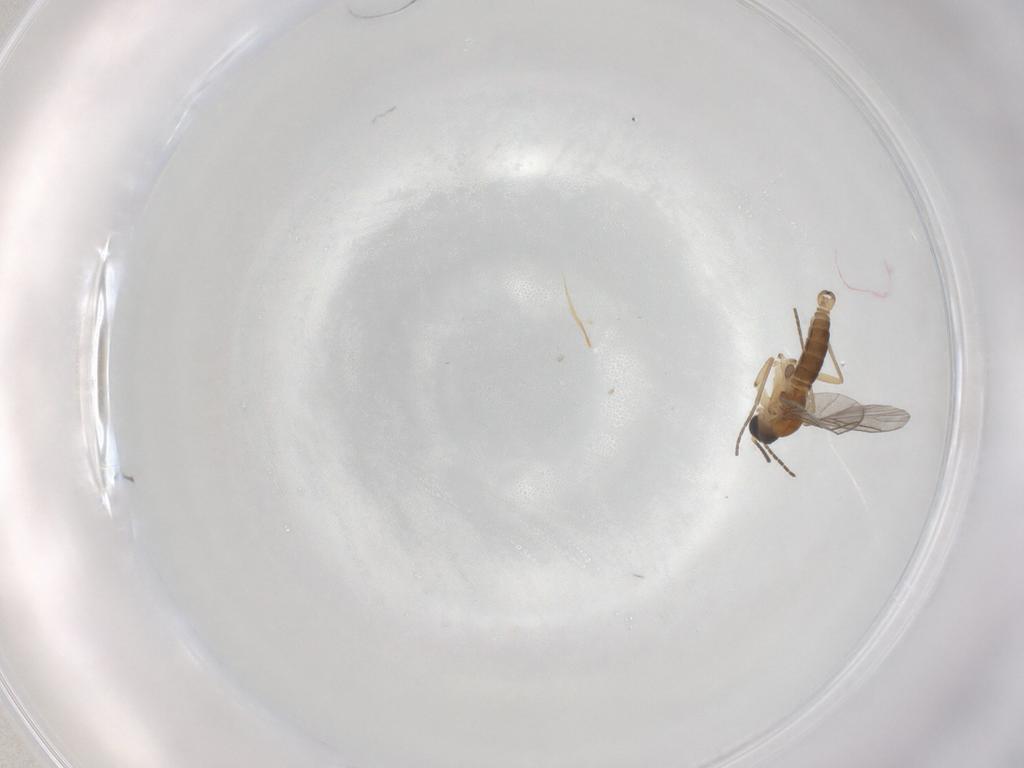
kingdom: Animalia
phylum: Arthropoda
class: Insecta
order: Diptera
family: Sciaridae
